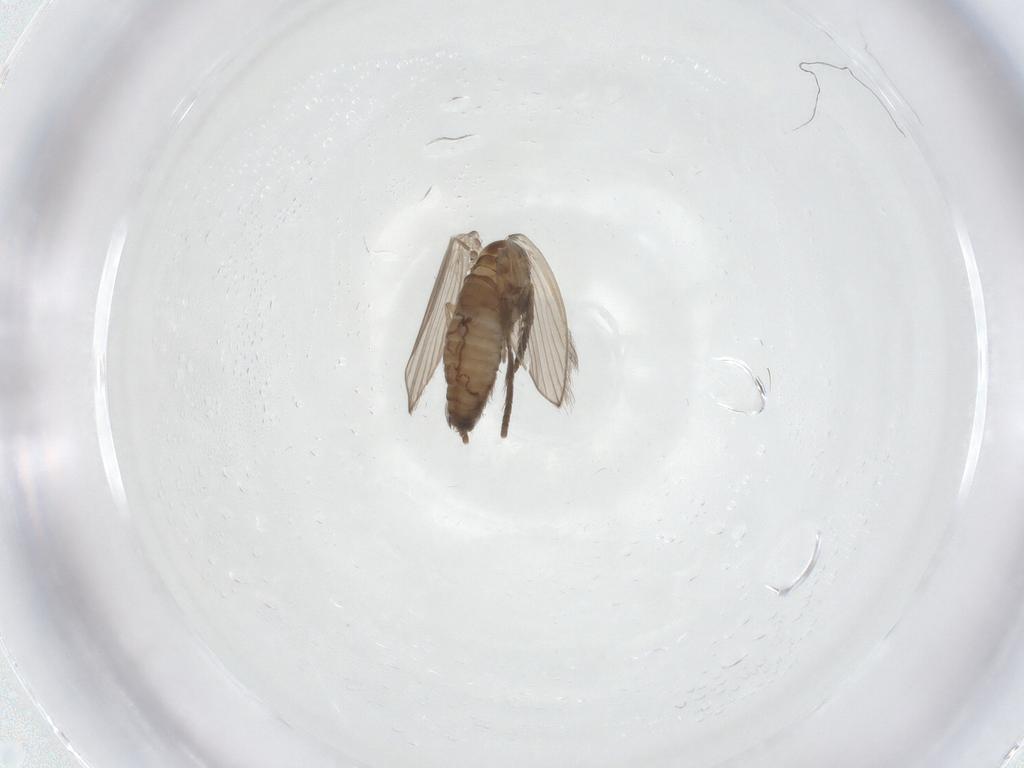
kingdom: Animalia
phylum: Arthropoda
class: Insecta
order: Diptera
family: Psychodidae
